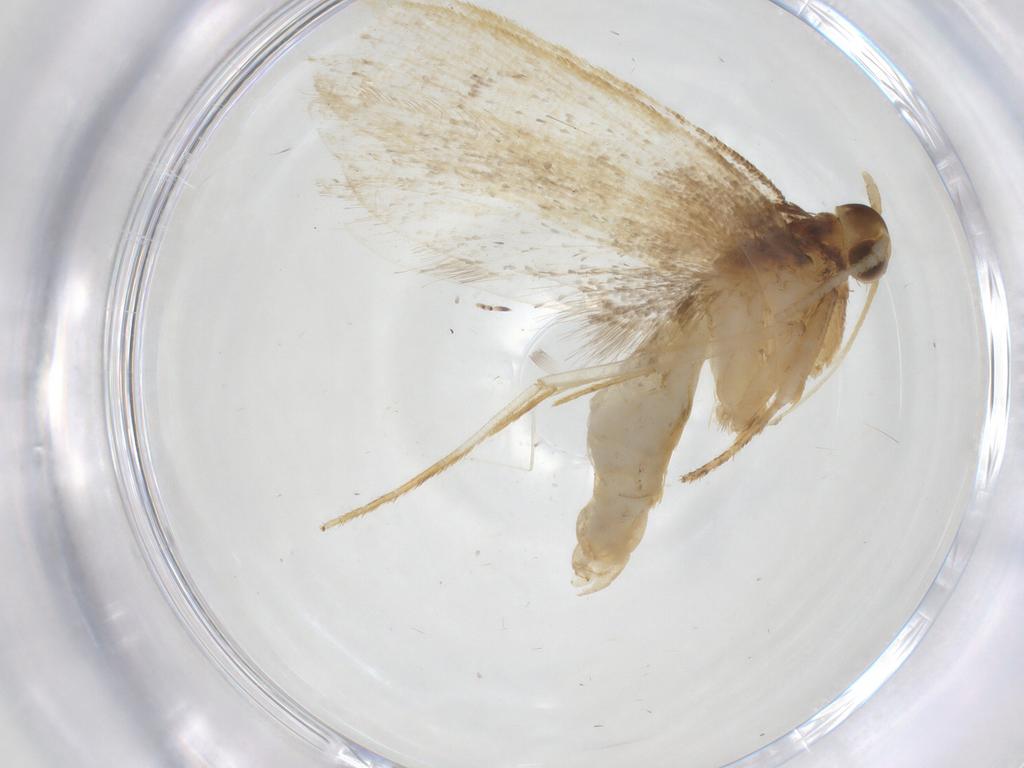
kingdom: Animalia
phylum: Arthropoda
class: Insecta
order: Lepidoptera
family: Lecithoceridae
